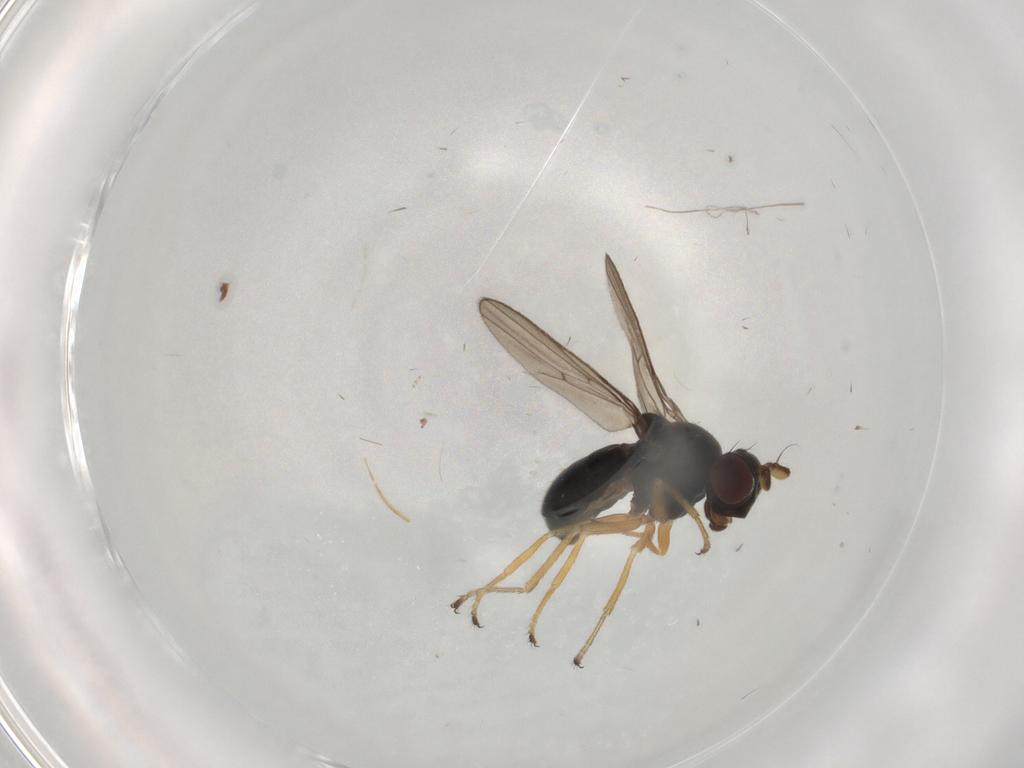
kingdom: Animalia
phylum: Arthropoda
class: Insecta
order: Diptera
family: Ephydridae
